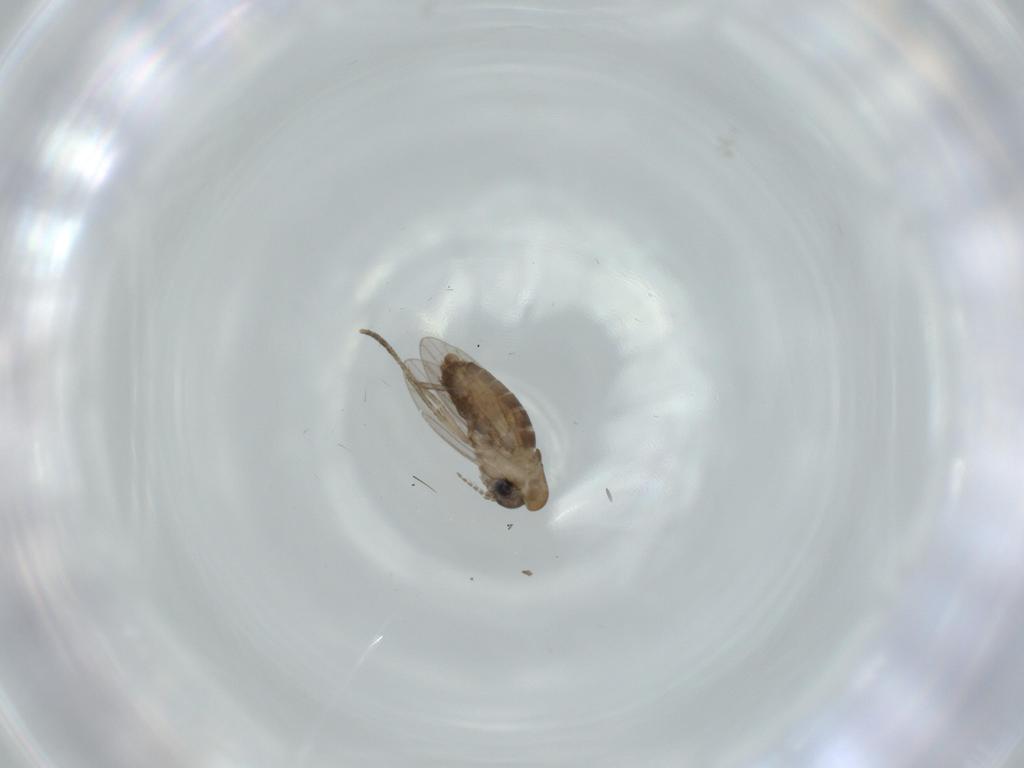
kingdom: Animalia
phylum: Arthropoda
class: Insecta
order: Diptera
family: Psychodidae
